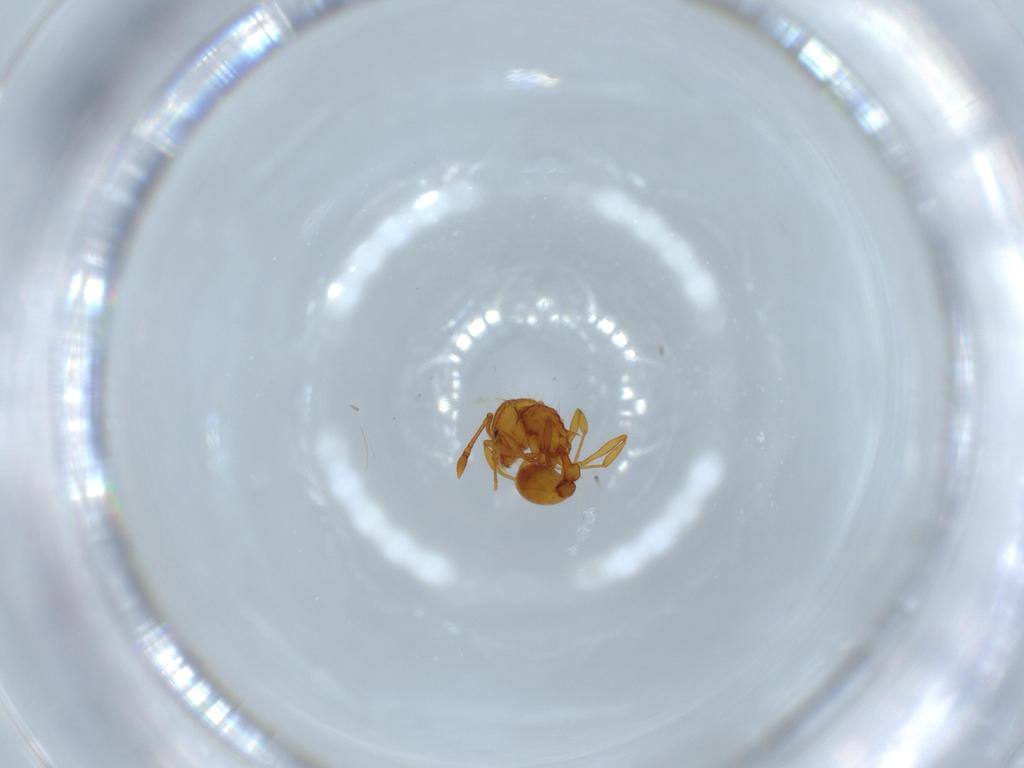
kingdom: Animalia
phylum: Arthropoda
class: Insecta
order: Hymenoptera
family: Formicidae
